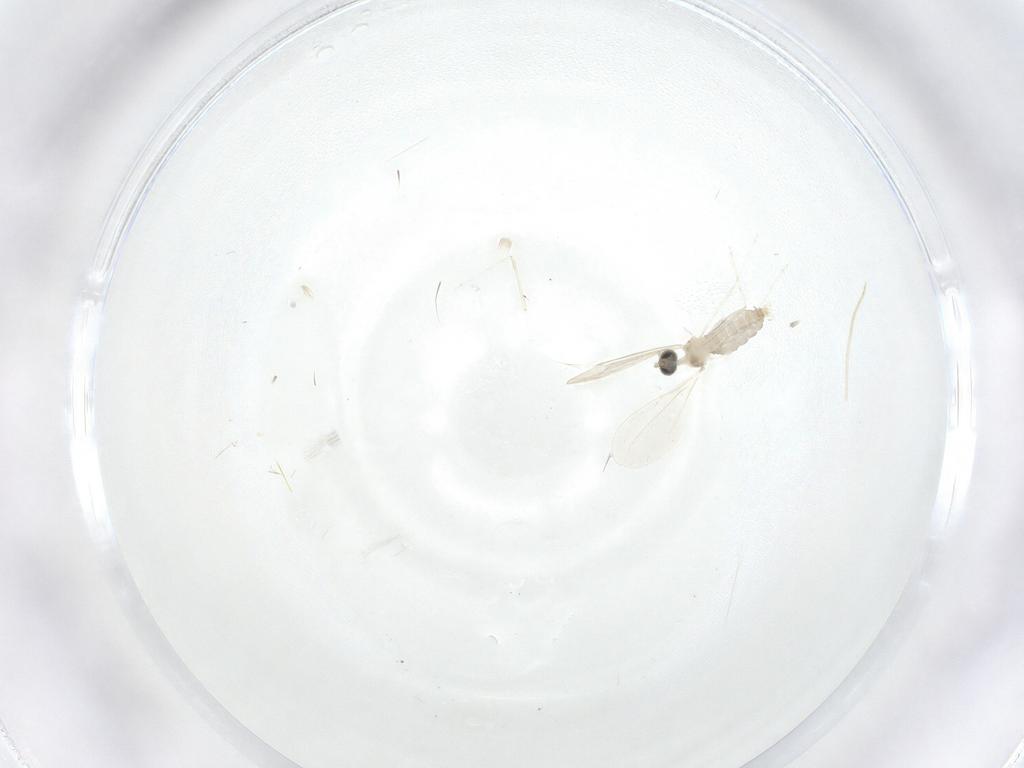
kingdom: Animalia
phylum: Arthropoda
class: Insecta
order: Diptera
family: Cecidomyiidae
